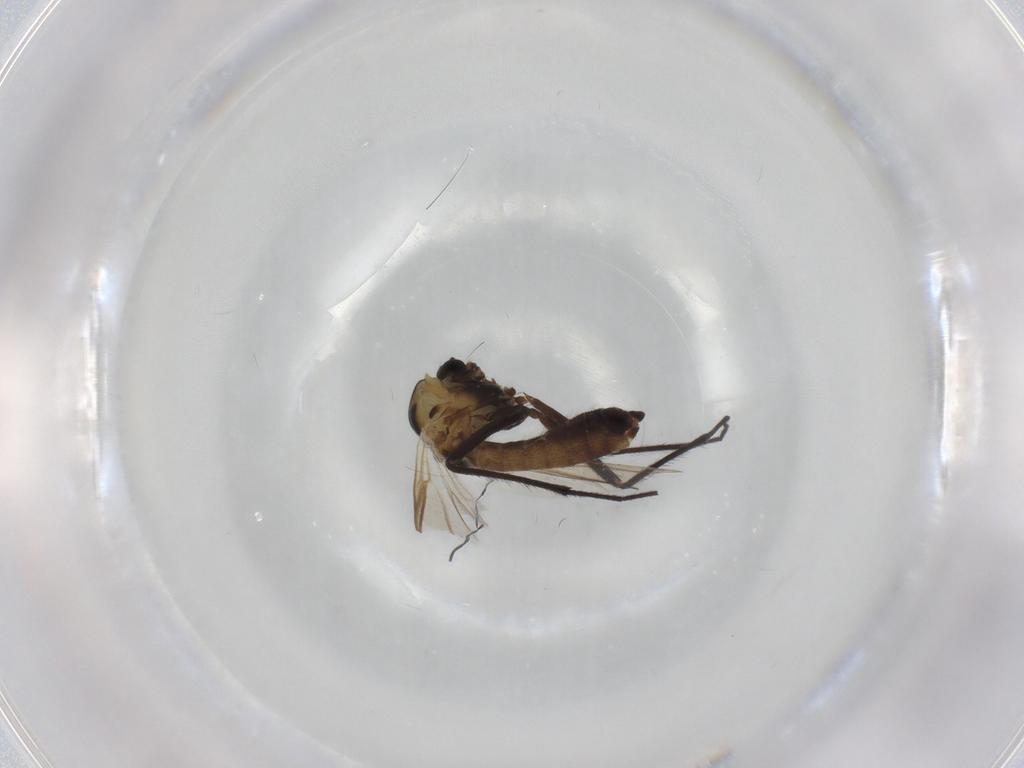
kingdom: Animalia
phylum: Arthropoda
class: Insecta
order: Diptera
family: Chironomidae
